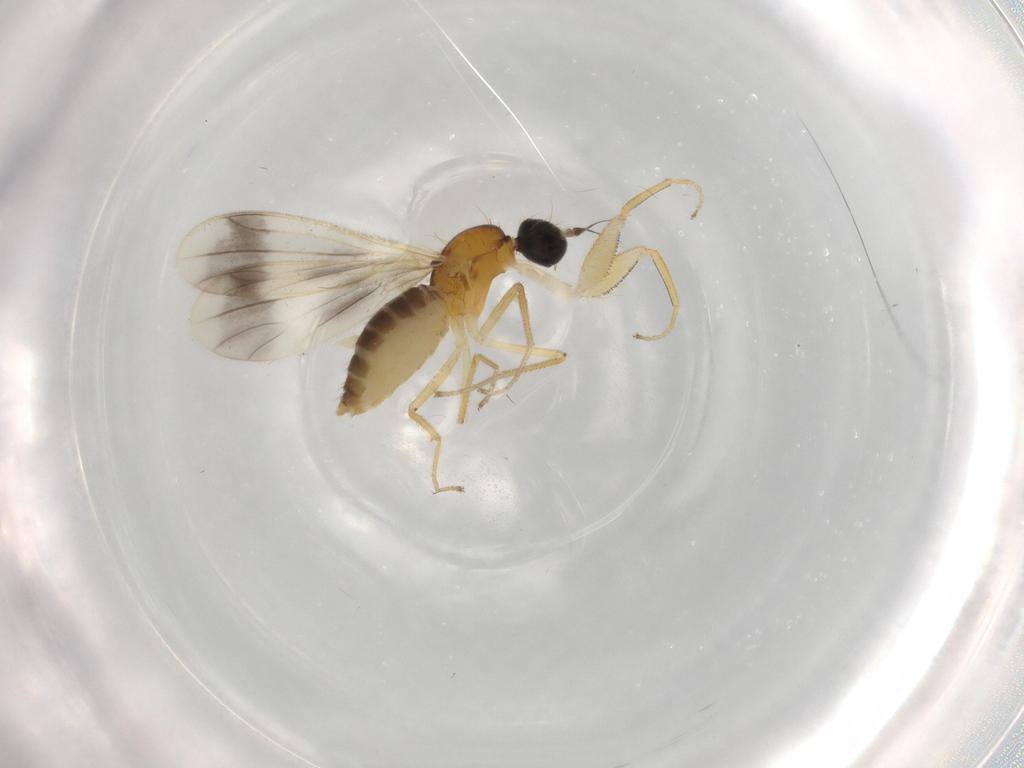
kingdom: Animalia
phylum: Arthropoda
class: Insecta
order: Diptera
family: Empididae
